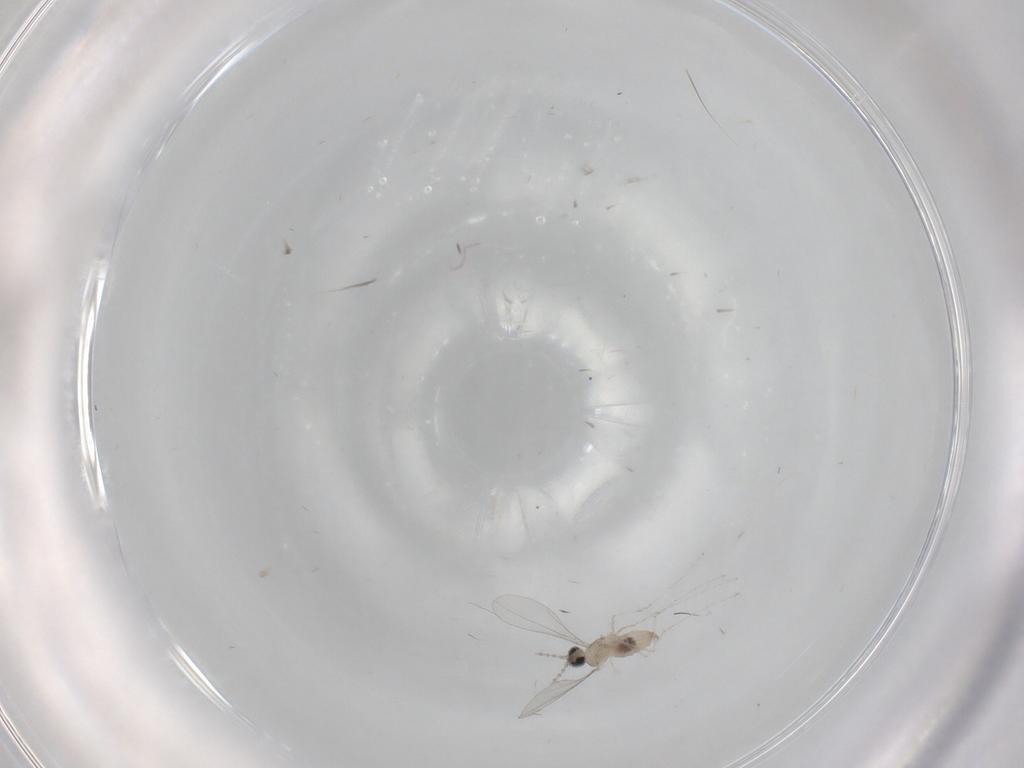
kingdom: Animalia
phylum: Arthropoda
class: Insecta
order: Diptera
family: Cecidomyiidae
